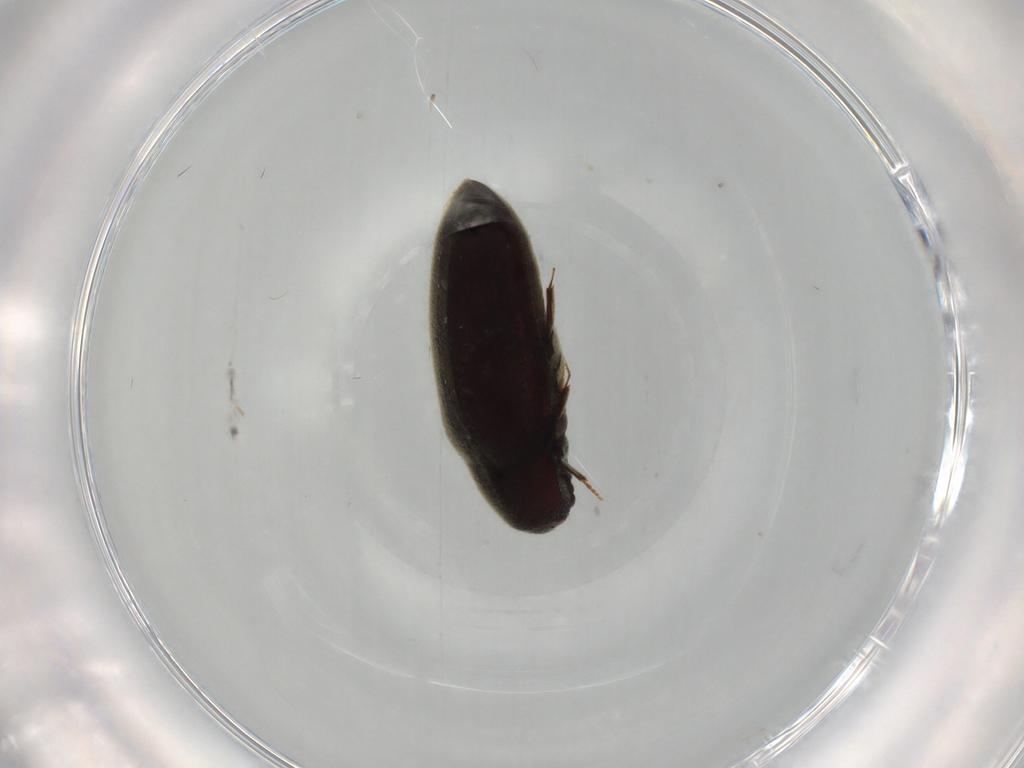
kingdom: Animalia
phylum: Arthropoda
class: Insecta
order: Coleoptera
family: Throscidae
